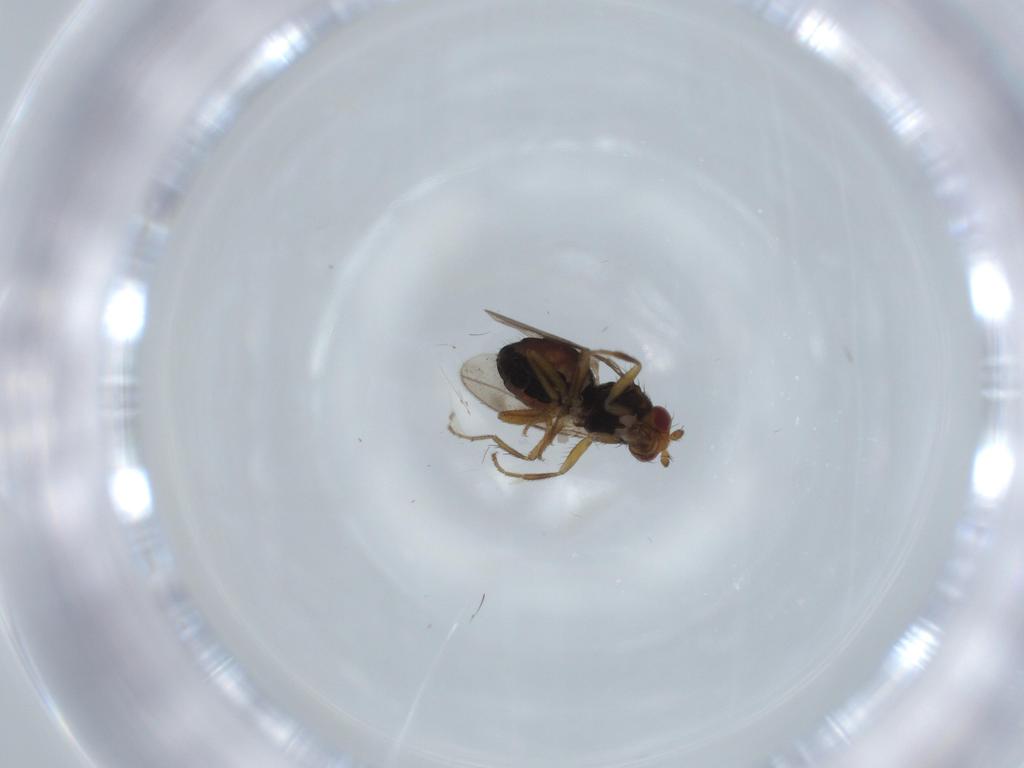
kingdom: Animalia
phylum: Arthropoda
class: Insecta
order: Diptera
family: Sphaeroceridae
